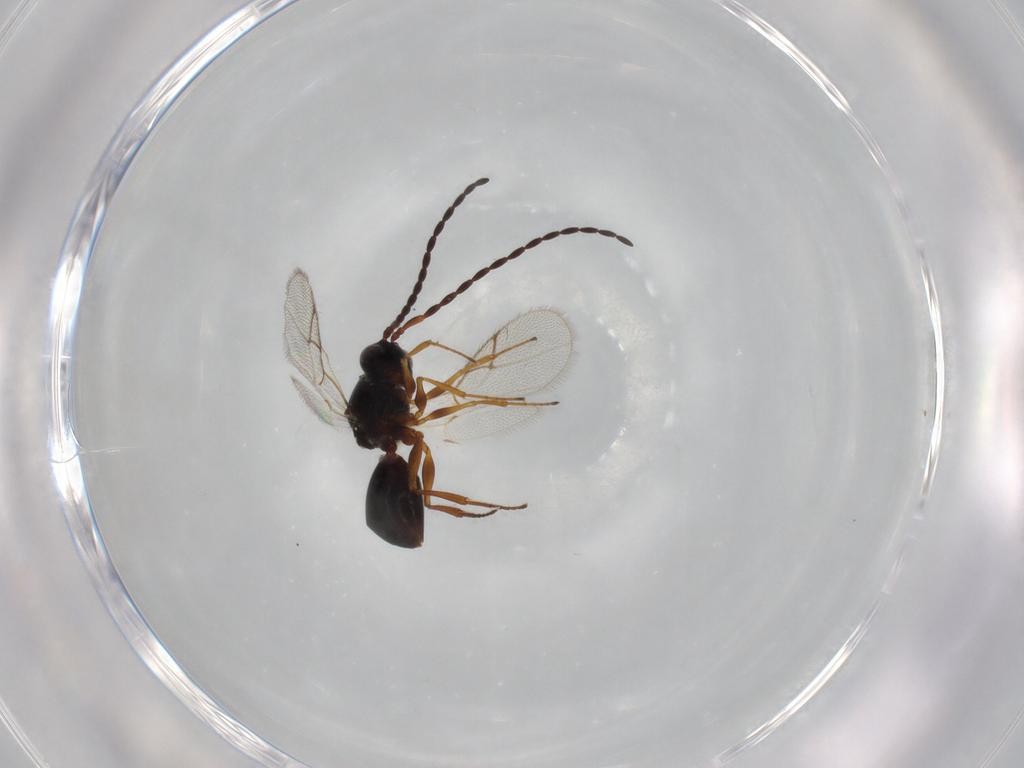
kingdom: Animalia
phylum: Arthropoda
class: Insecta
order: Hymenoptera
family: Figitidae
